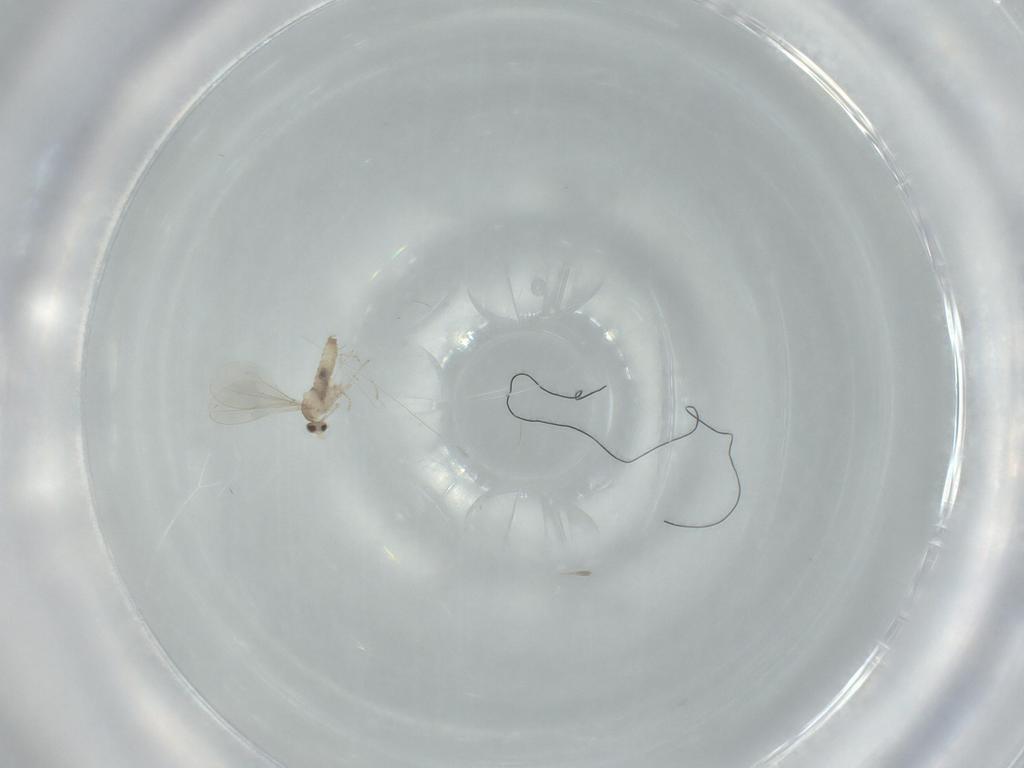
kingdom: Animalia
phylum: Arthropoda
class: Insecta
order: Diptera
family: Cecidomyiidae
